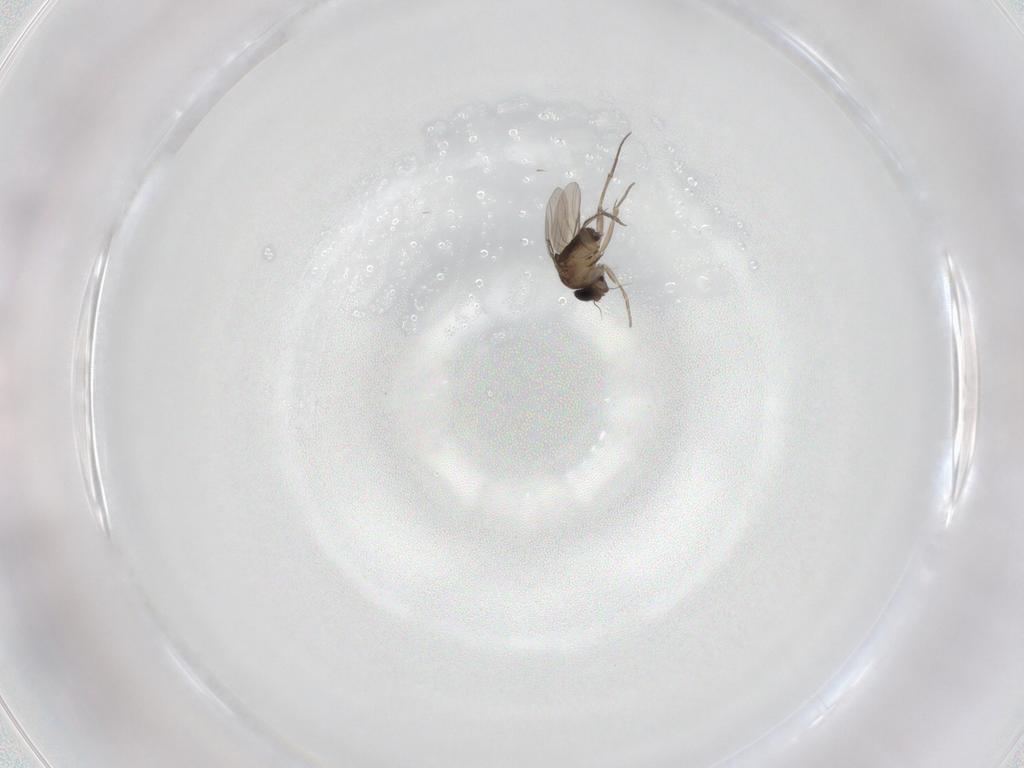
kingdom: Animalia
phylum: Arthropoda
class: Insecta
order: Diptera
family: Phoridae
